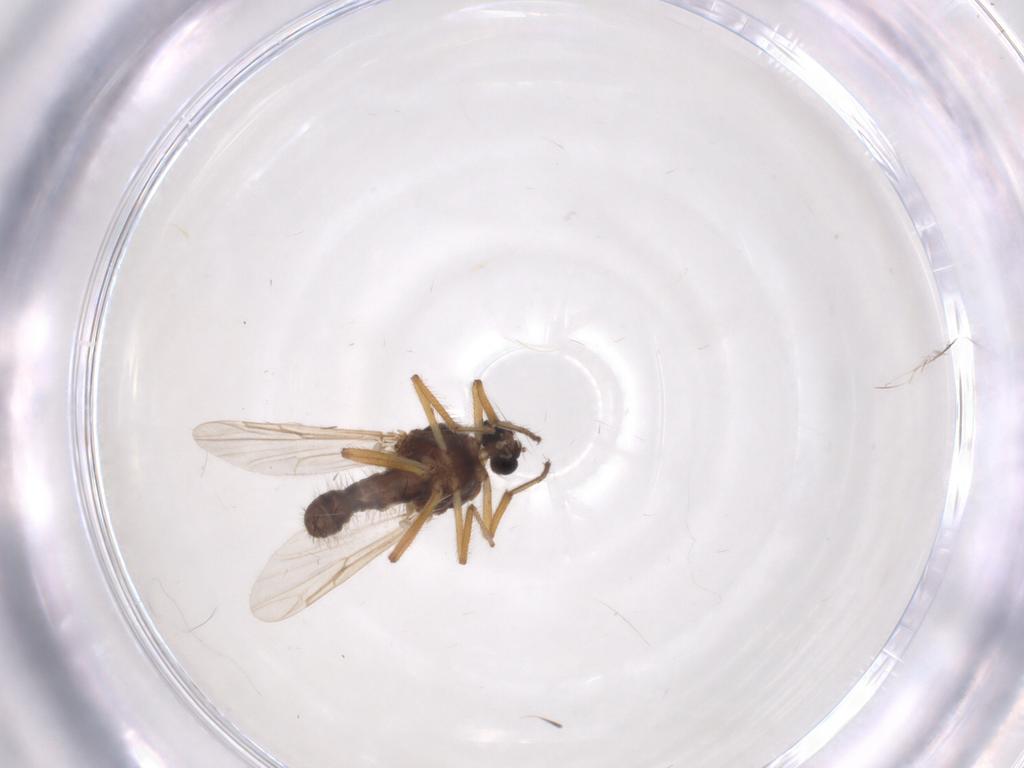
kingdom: Animalia
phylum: Arthropoda
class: Insecta
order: Diptera
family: Ceratopogonidae
